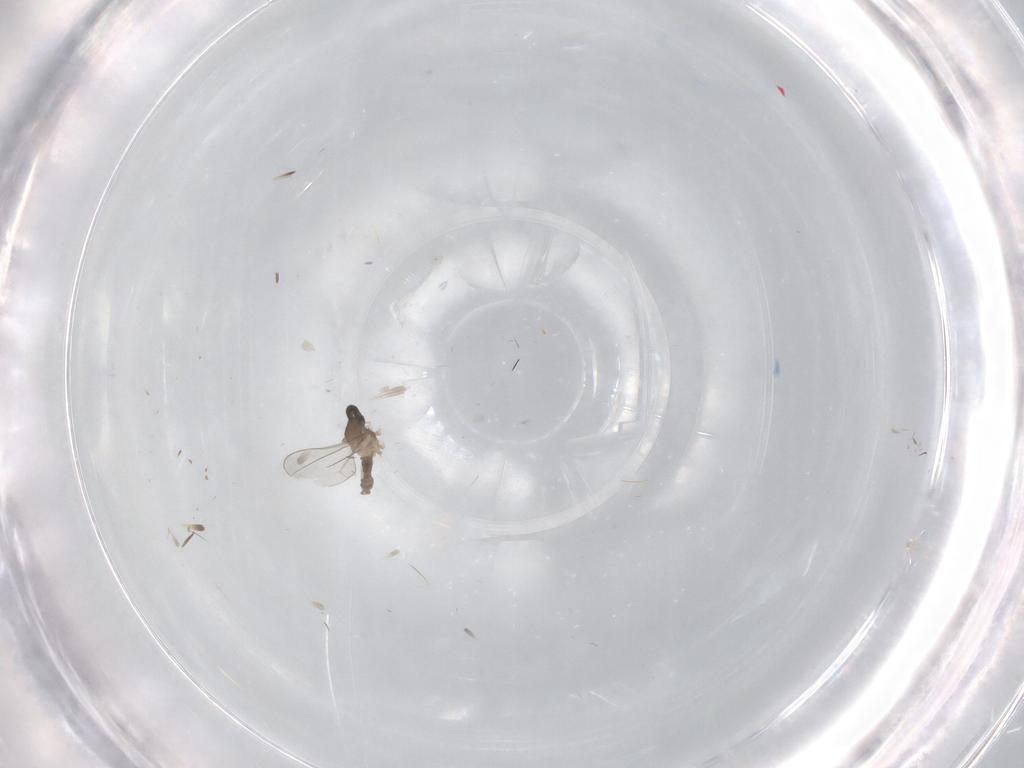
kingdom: Animalia
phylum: Arthropoda
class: Insecta
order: Diptera
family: Cecidomyiidae
